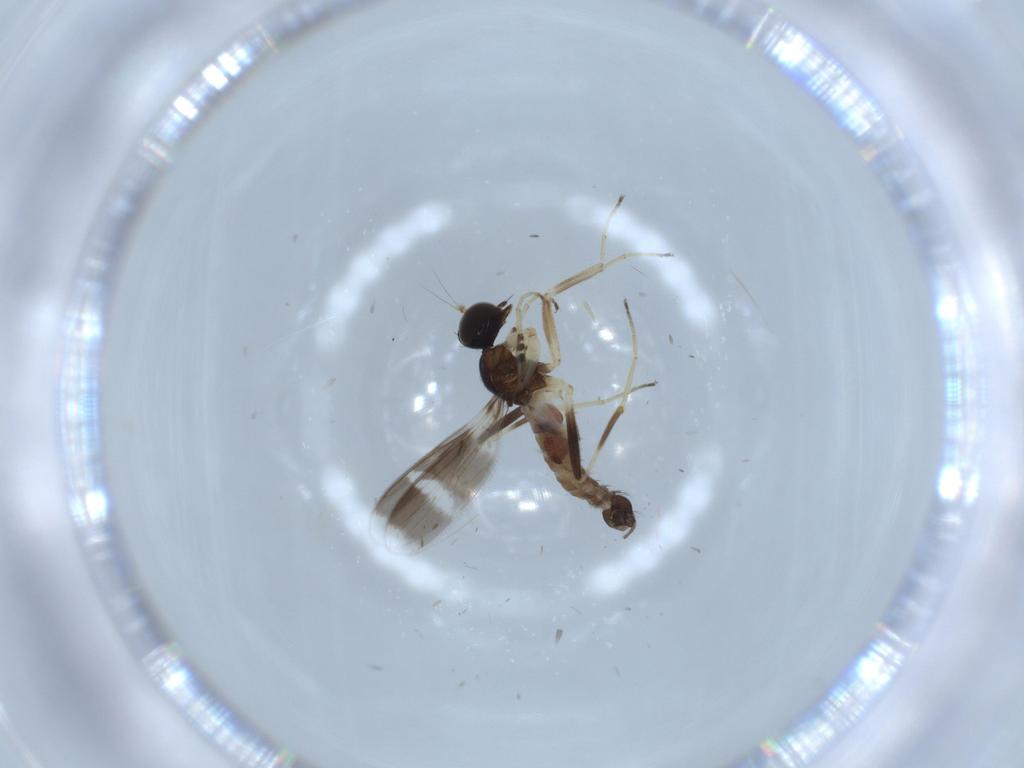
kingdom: Animalia
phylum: Arthropoda
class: Insecta
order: Diptera
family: Hybotidae
